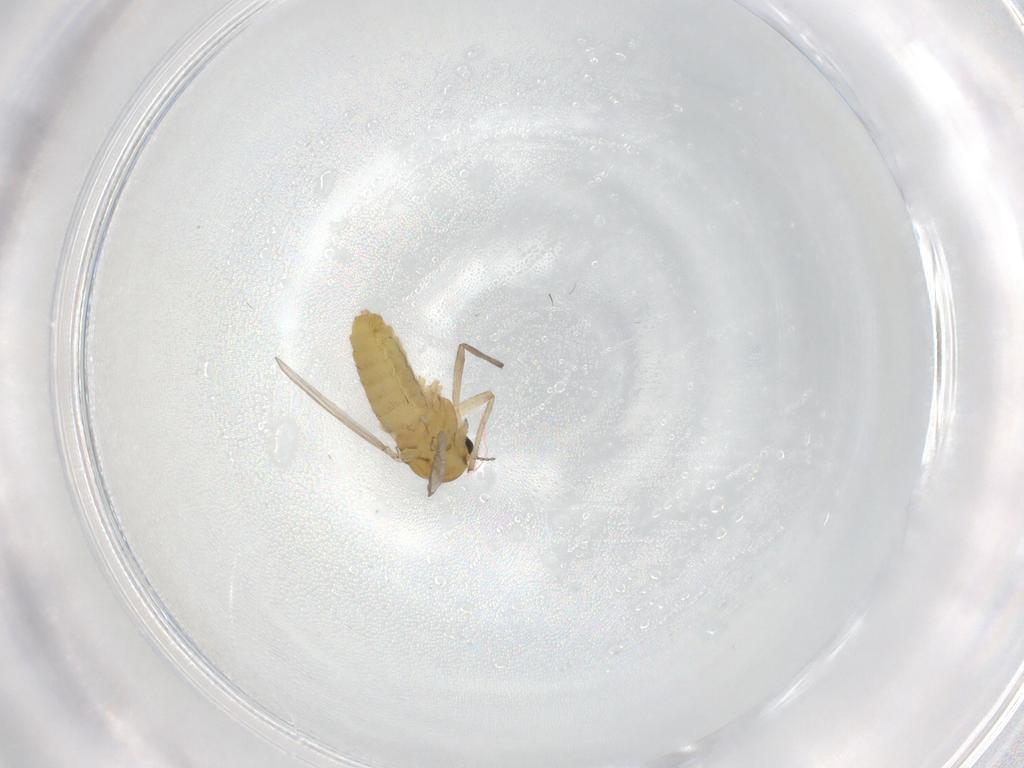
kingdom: Animalia
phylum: Arthropoda
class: Insecta
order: Diptera
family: Chironomidae
